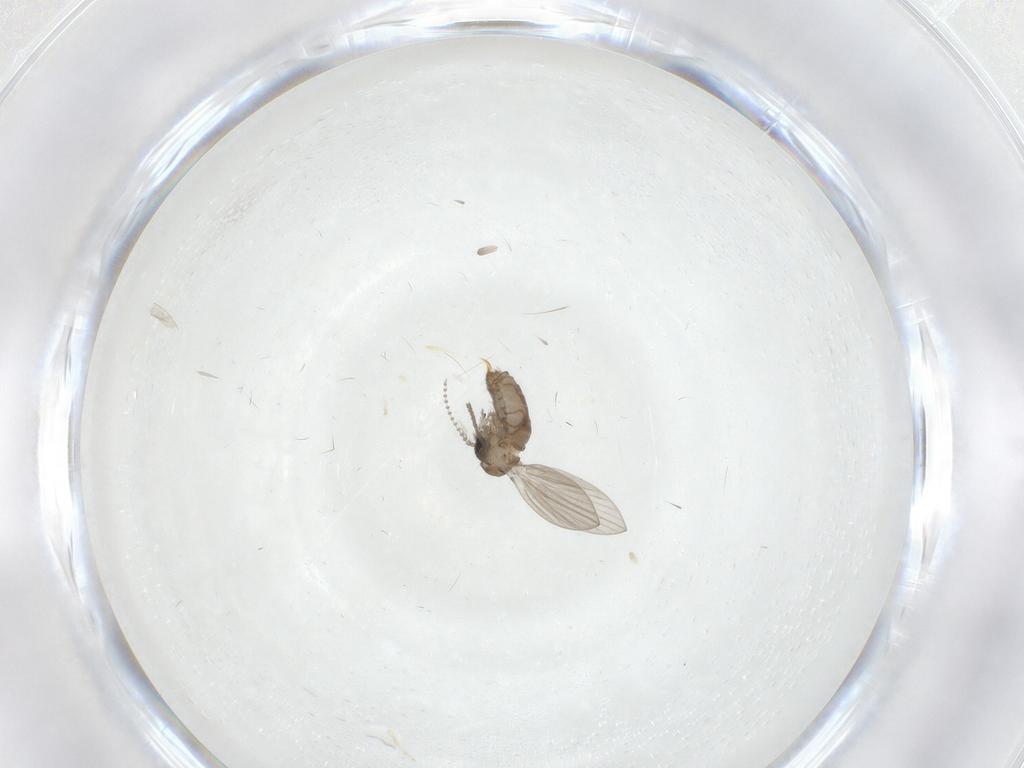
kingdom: Animalia
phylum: Arthropoda
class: Insecta
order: Diptera
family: Psychodidae
